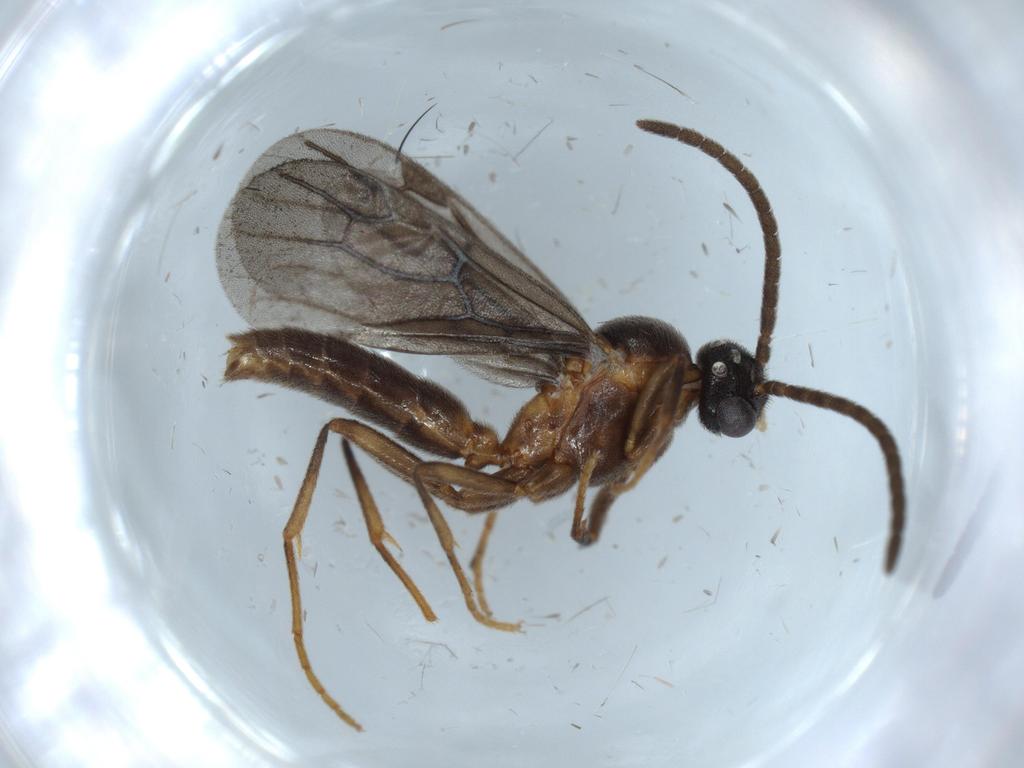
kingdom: Animalia
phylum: Arthropoda
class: Insecta
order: Hymenoptera
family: Formicidae
